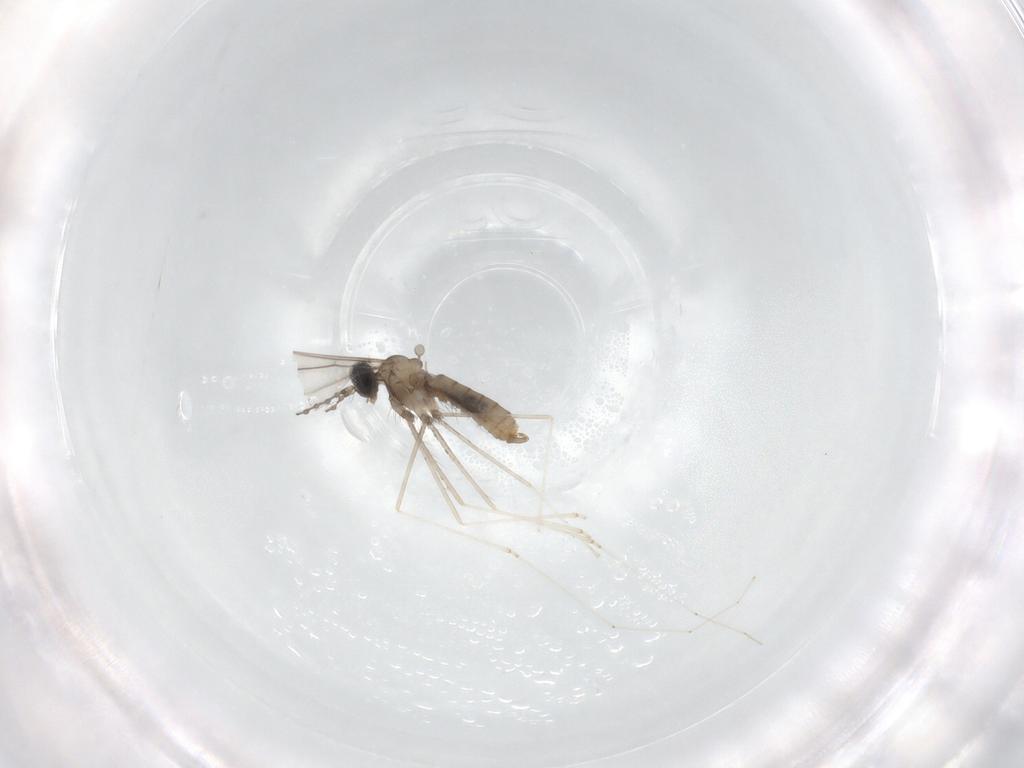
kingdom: Animalia
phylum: Arthropoda
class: Insecta
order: Diptera
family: Cecidomyiidae
